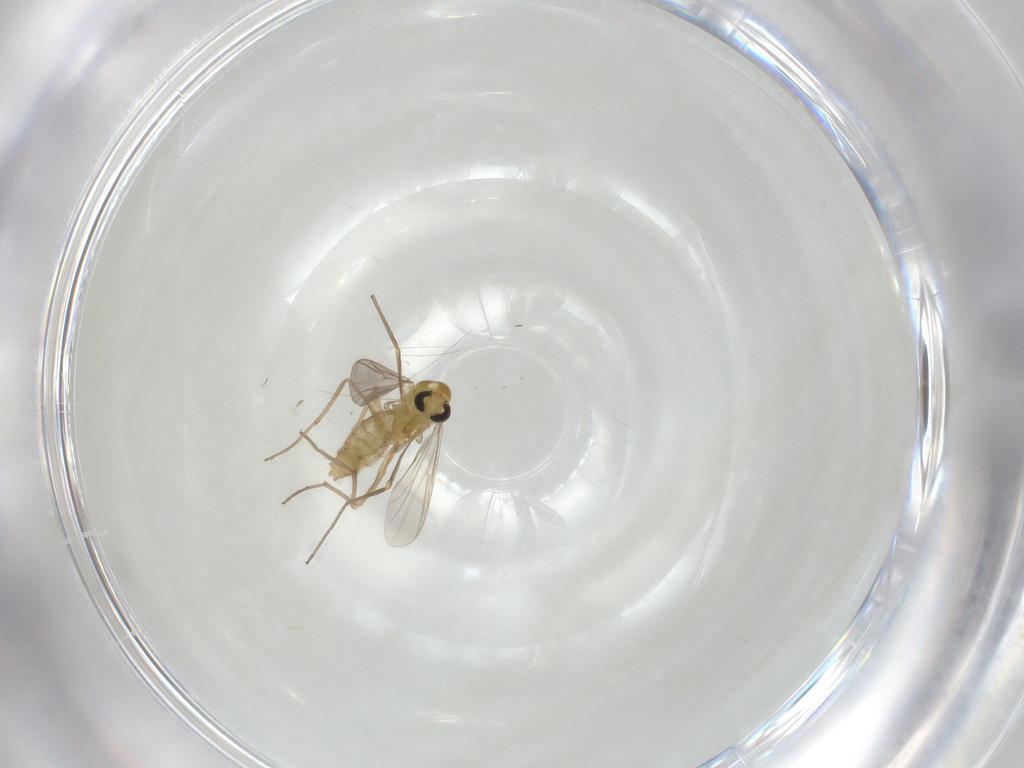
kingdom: Animalia
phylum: Arthropoda
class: Insecta
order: Diptera
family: Chironomidae
